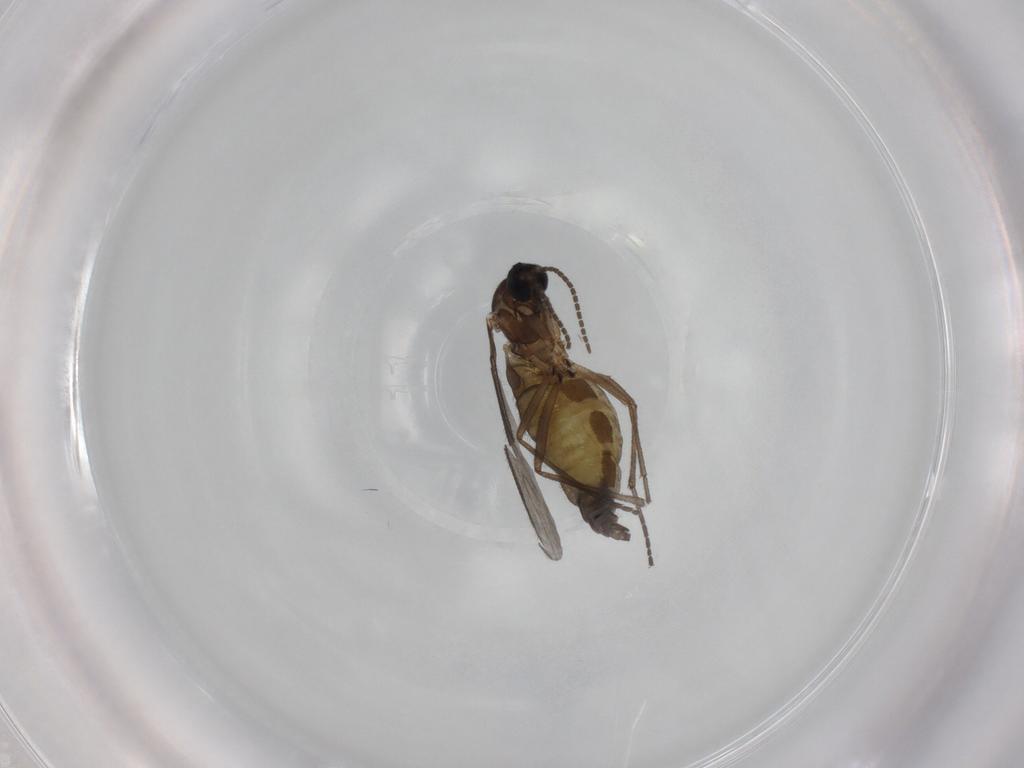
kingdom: Animalia
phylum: Arthropoda
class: Insecta
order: Diptera
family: Sciaridae
